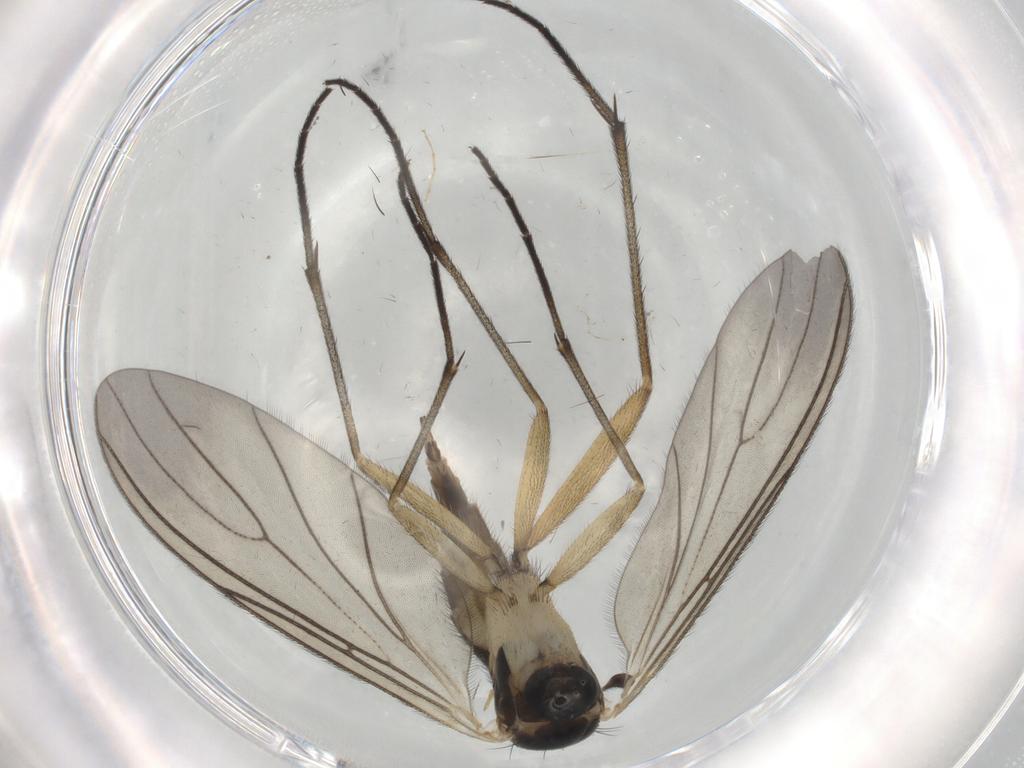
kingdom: Animalia
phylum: Arthropoda
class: Insecta
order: Diptera
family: Sciaridae
